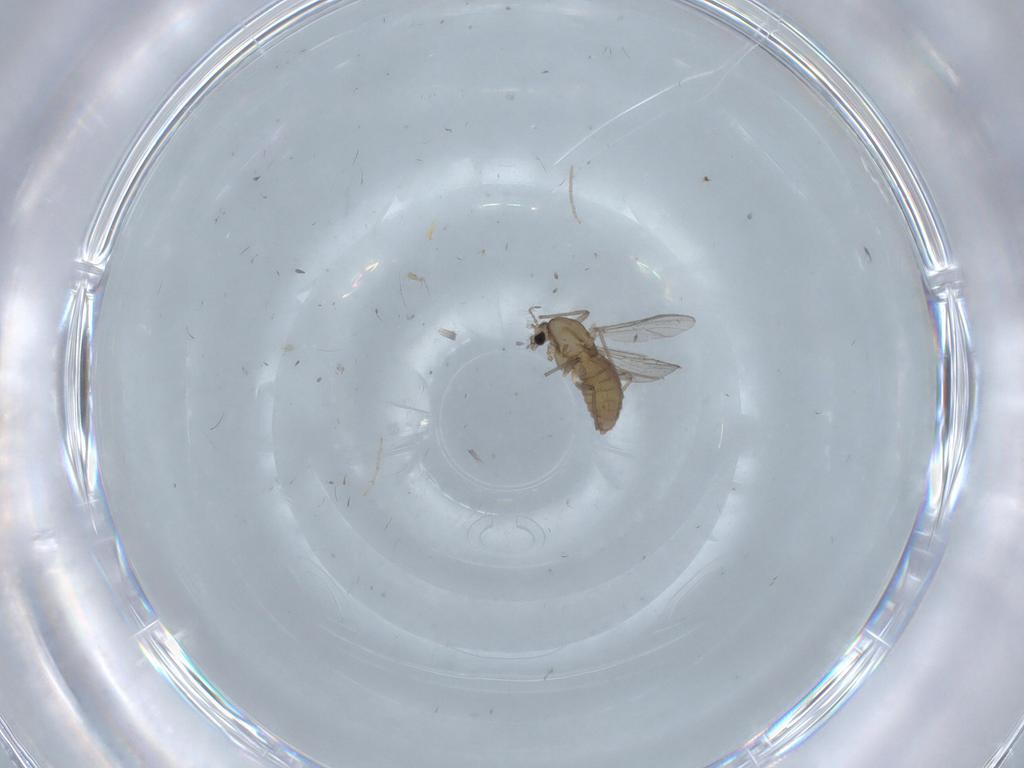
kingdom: Animalia
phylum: Arthropoda
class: Insecta
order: Diptera
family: Chironomidae
